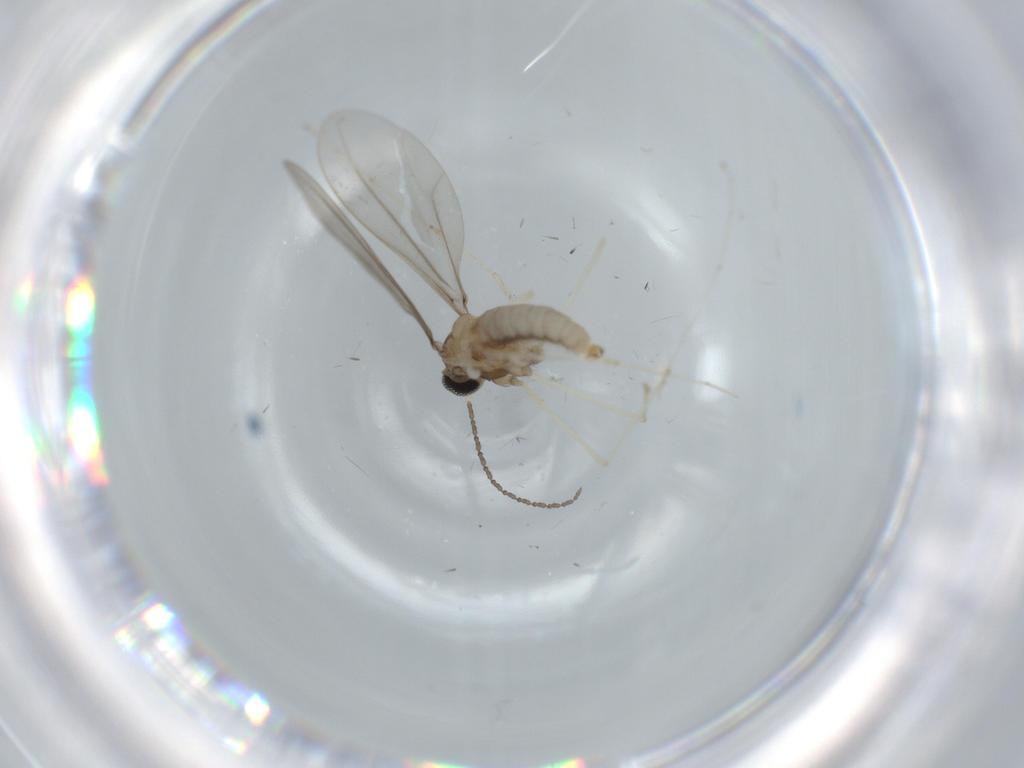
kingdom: Animalia
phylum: Arthropoda
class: Insecta
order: Diptera
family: Cecidomyiidae
